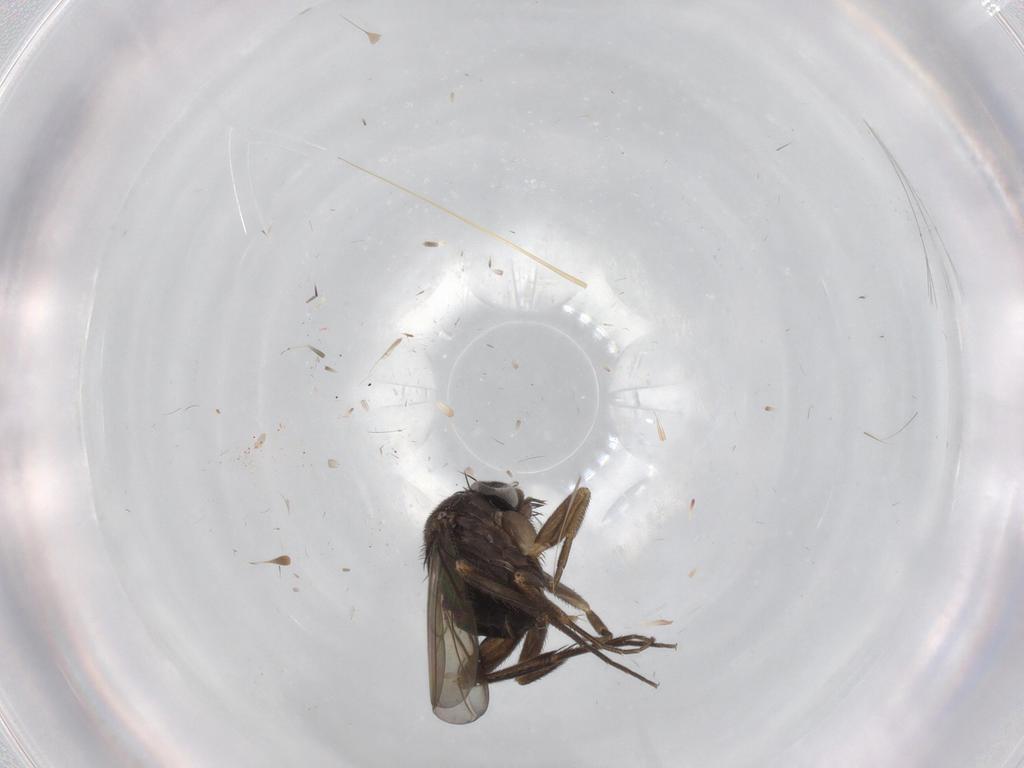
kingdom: Animalia
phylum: Arthropoda
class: Insecta
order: Diptera
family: Phoridae
